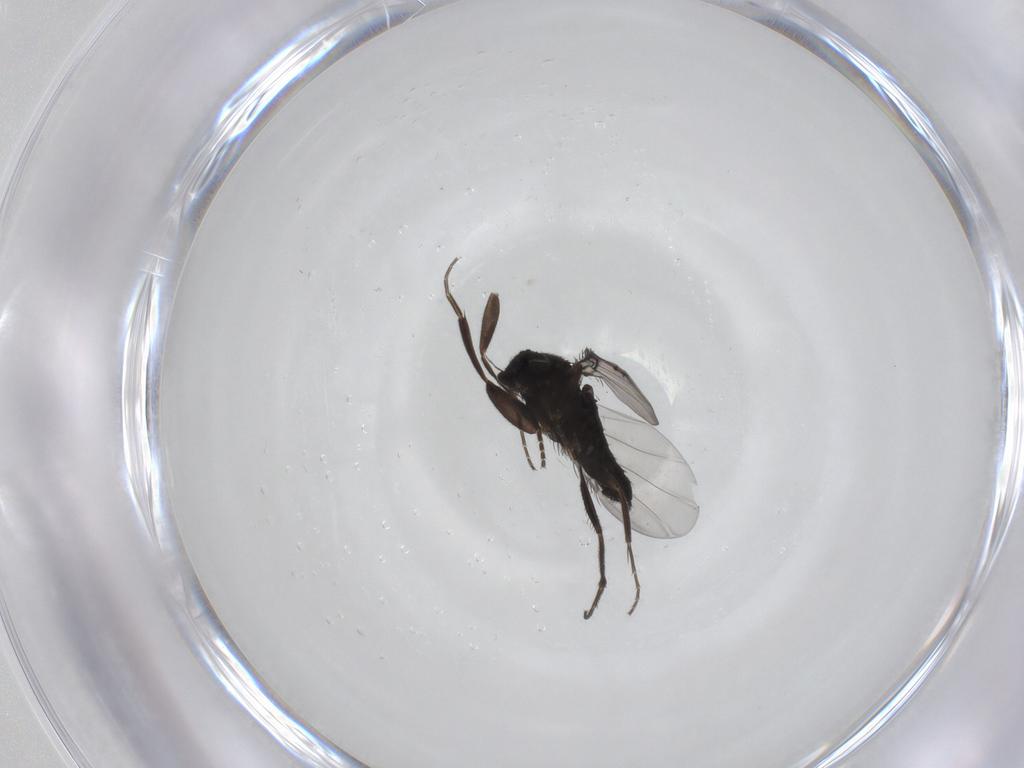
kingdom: Animalia
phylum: Arthropoda
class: Insecta
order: Diptera
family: Phoridae
